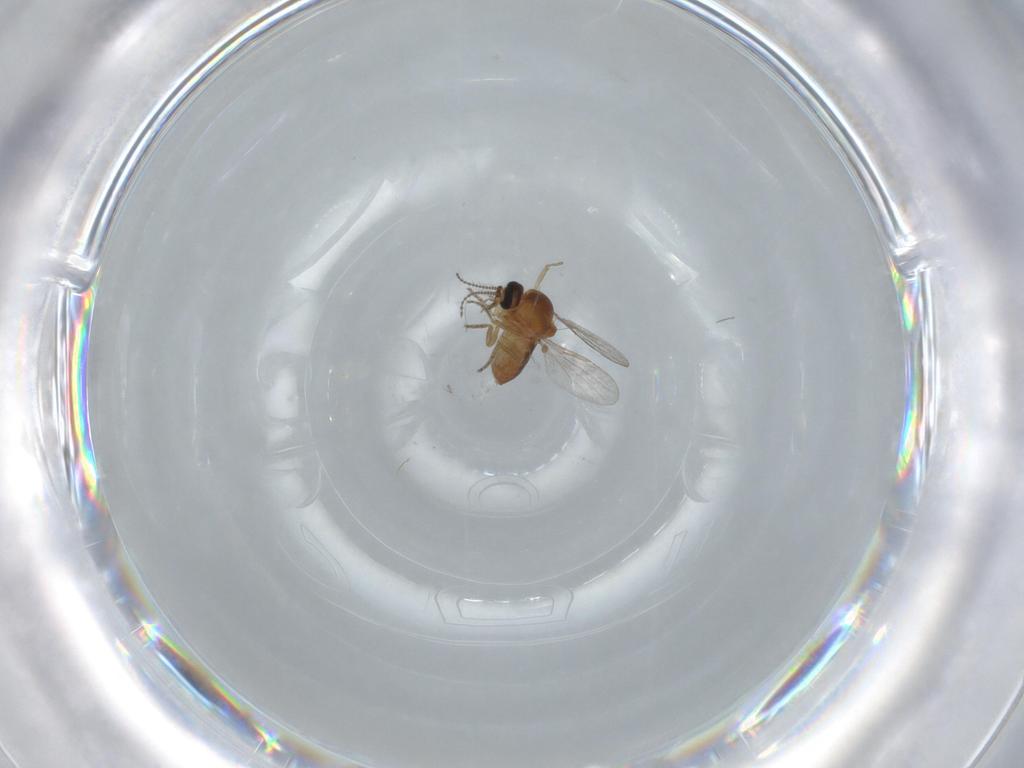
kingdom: Animalia
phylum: Arthropoda
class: Insecta
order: Diptera
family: Ceratopogonidae
